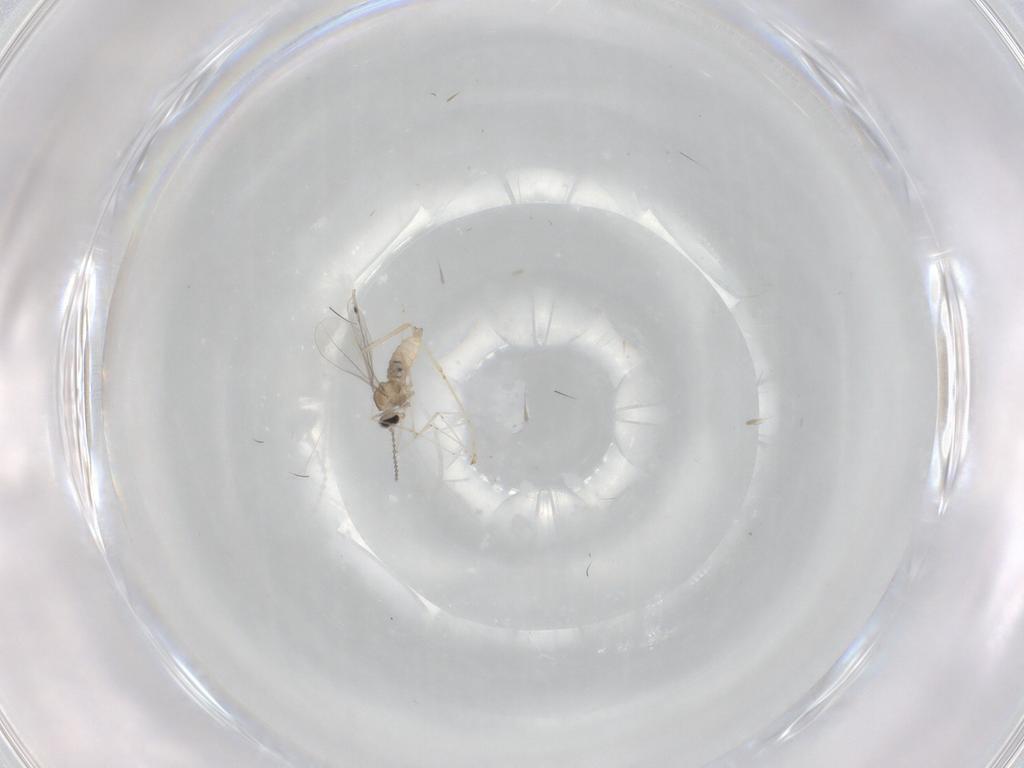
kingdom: Animalia
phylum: Arthropoda
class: Insecta
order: Diptera
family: Cecidomyiidae
